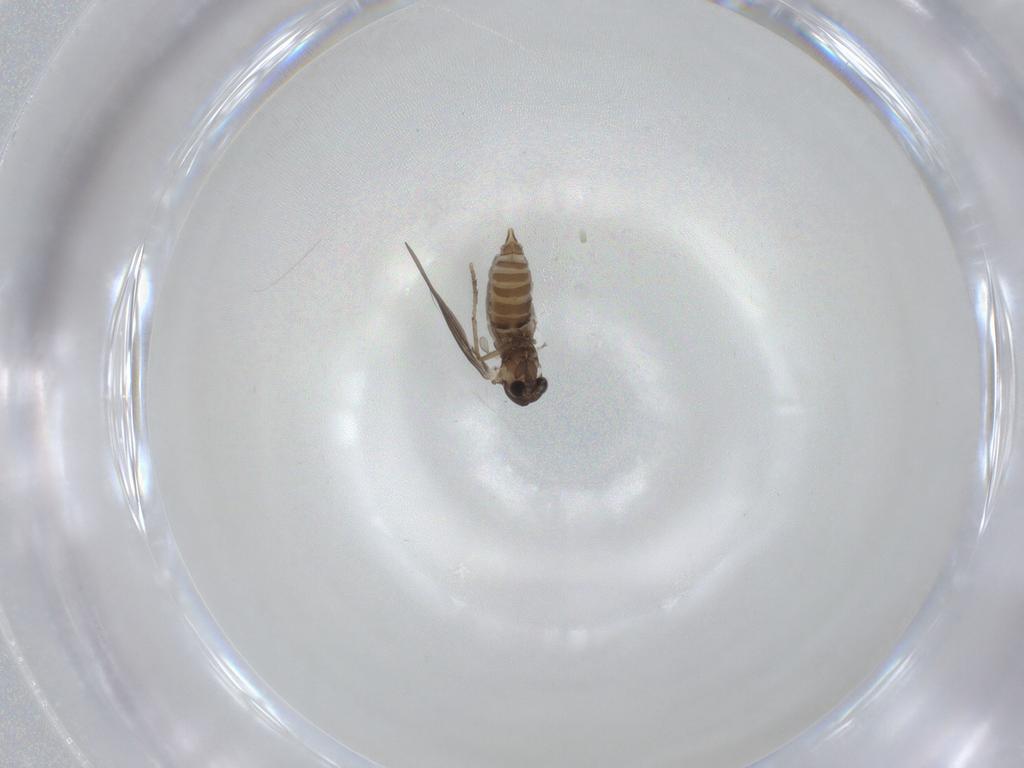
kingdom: Animalia
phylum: Arthropoda
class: Insecta
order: Diptera
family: Psychodidae
